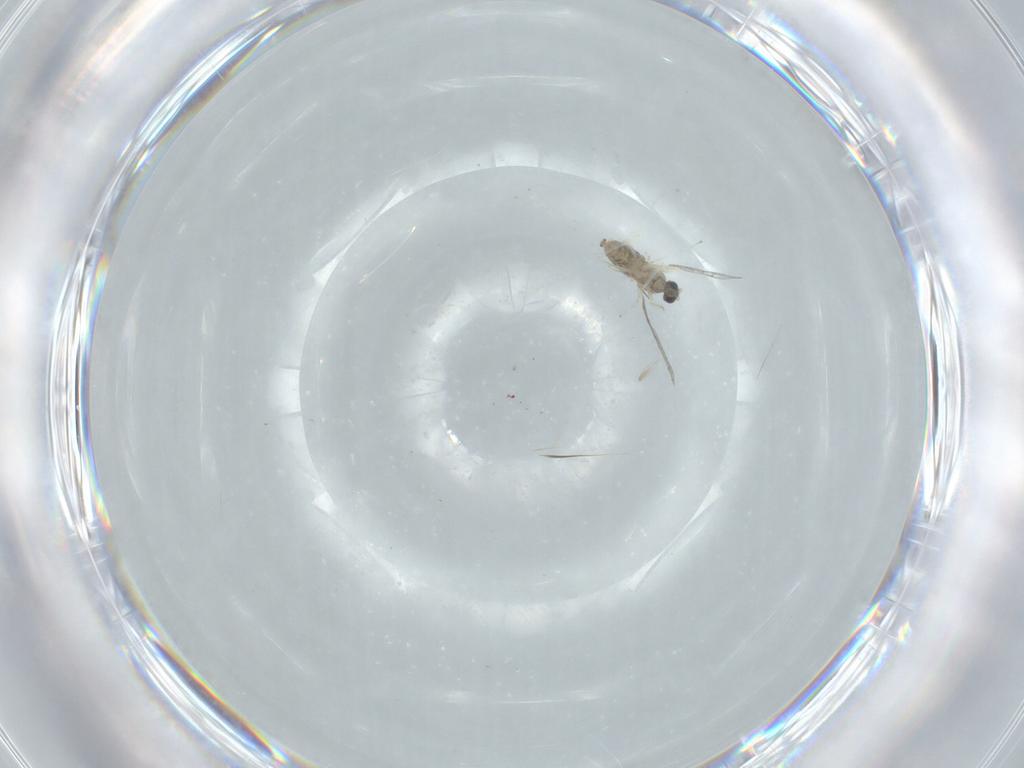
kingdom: Animalia
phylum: Arthropoda
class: Insecta
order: Diptera
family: Cecidomyiidae
